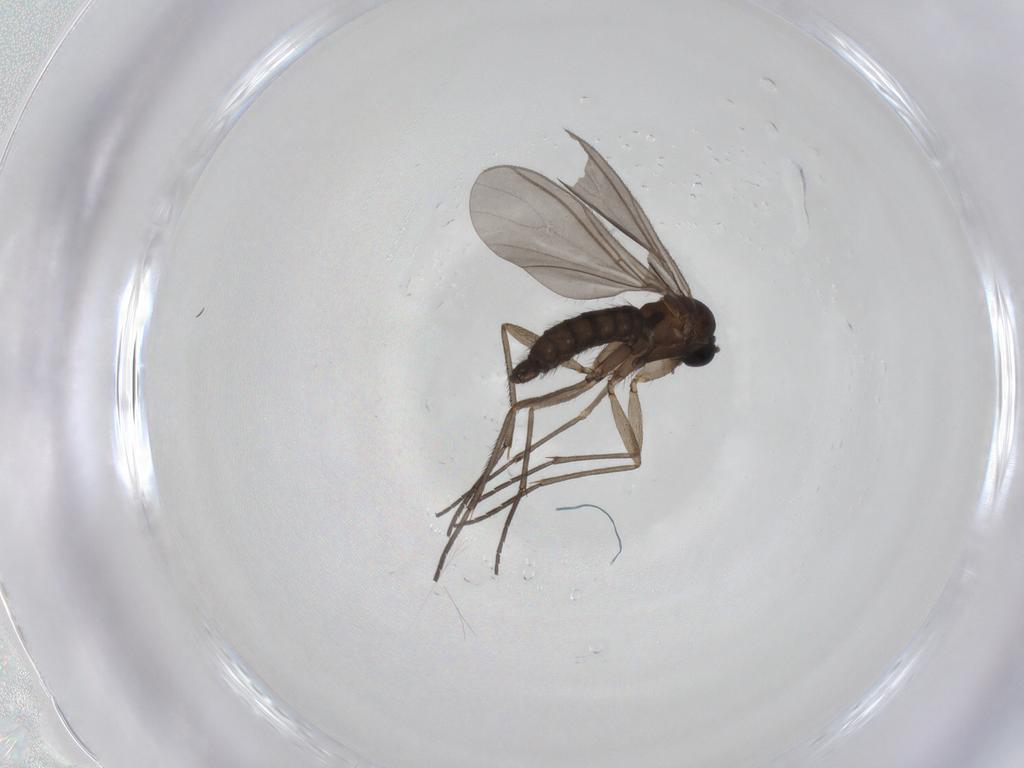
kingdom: Animalia
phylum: Arthropoda
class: Insecta
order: Diptera
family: Sciaridae
